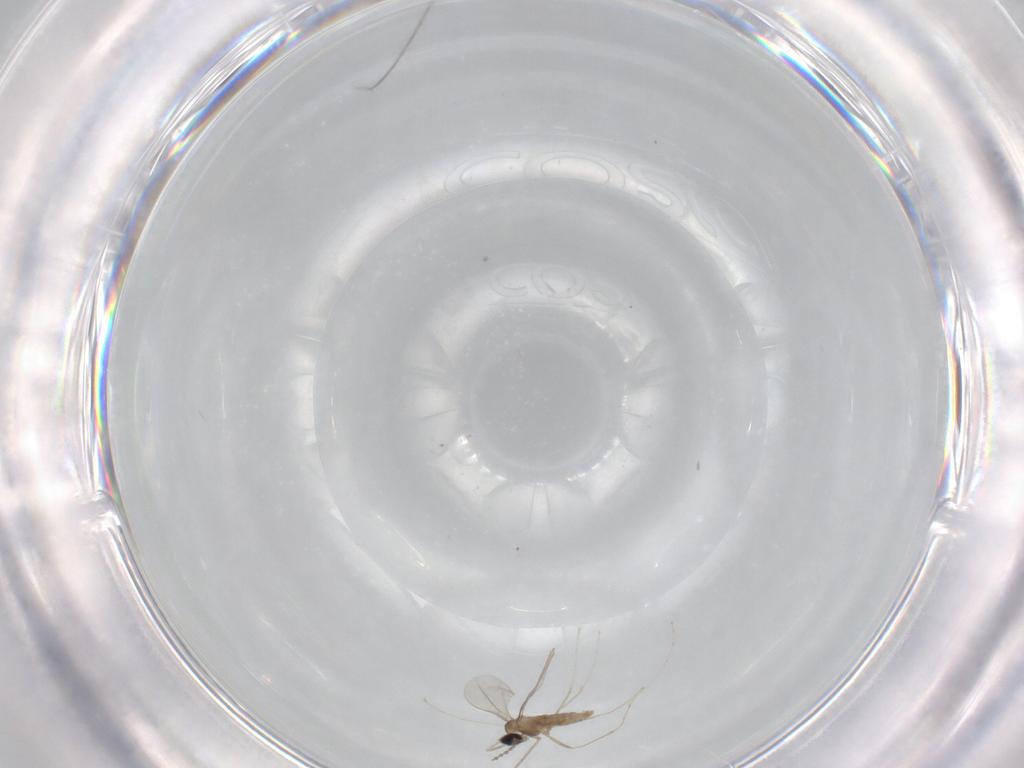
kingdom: Animalia
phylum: Arthropoda
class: Insecta
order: Diptera
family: Cecidomyiidae
